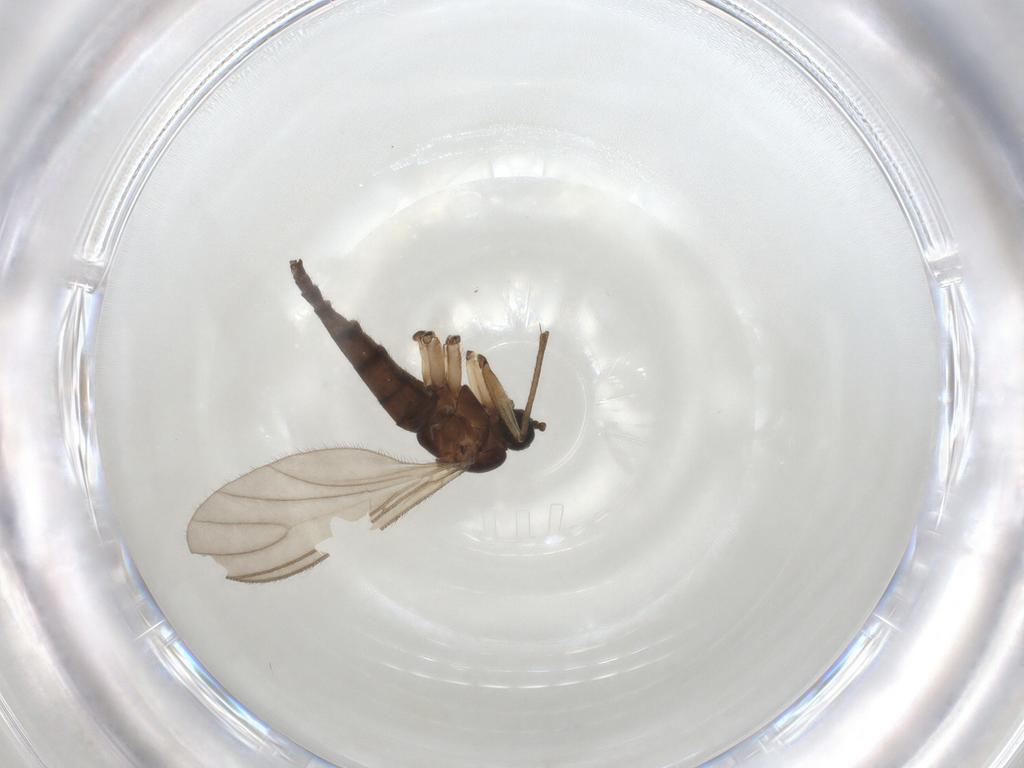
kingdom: Animalia
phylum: Arthropoda
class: Insecta
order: Diptera
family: Sciaridae
